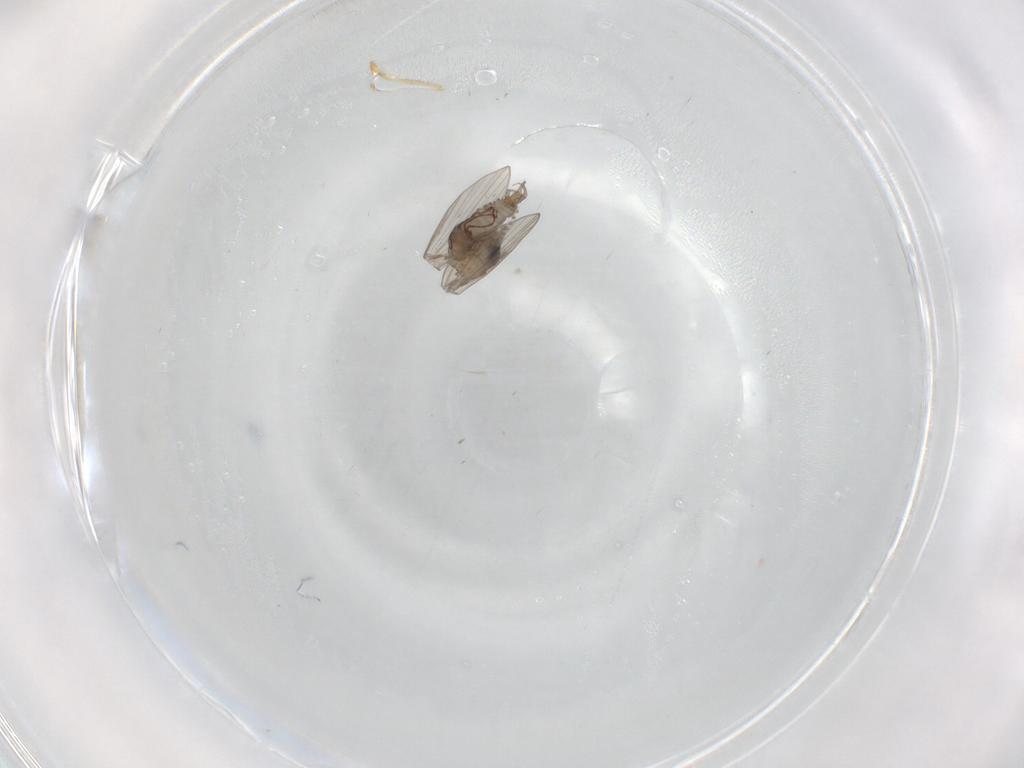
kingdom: Animalia
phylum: Arthropoda
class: Insecta
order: Diptera
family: Psychodidae
